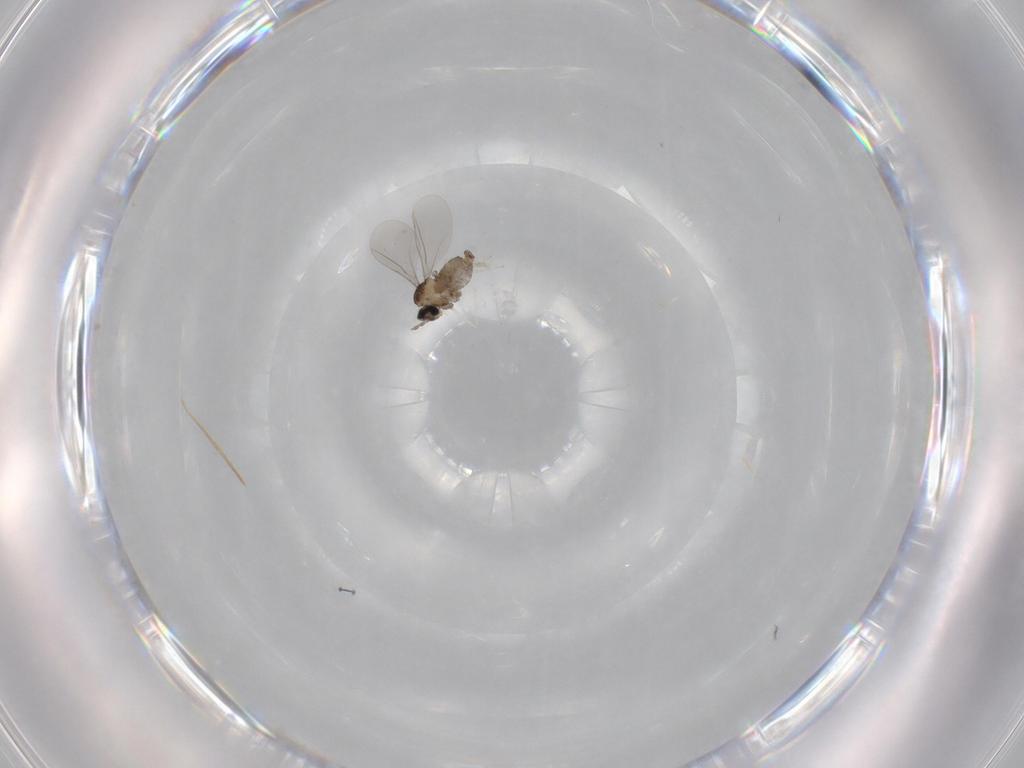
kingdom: Animalia
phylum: Arthropoda
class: Insecta
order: Diptera
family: Cecidomyiidae
